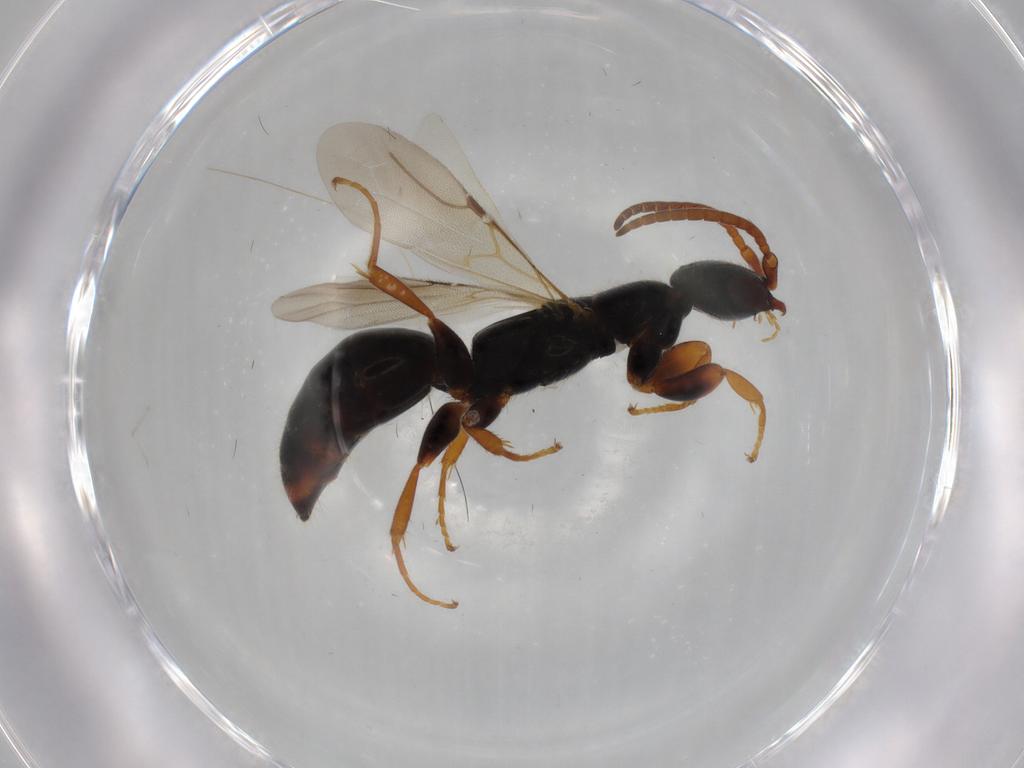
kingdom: Animalia
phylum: Arthropoda
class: Insecta
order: Hymenoptera
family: Bethylidae
